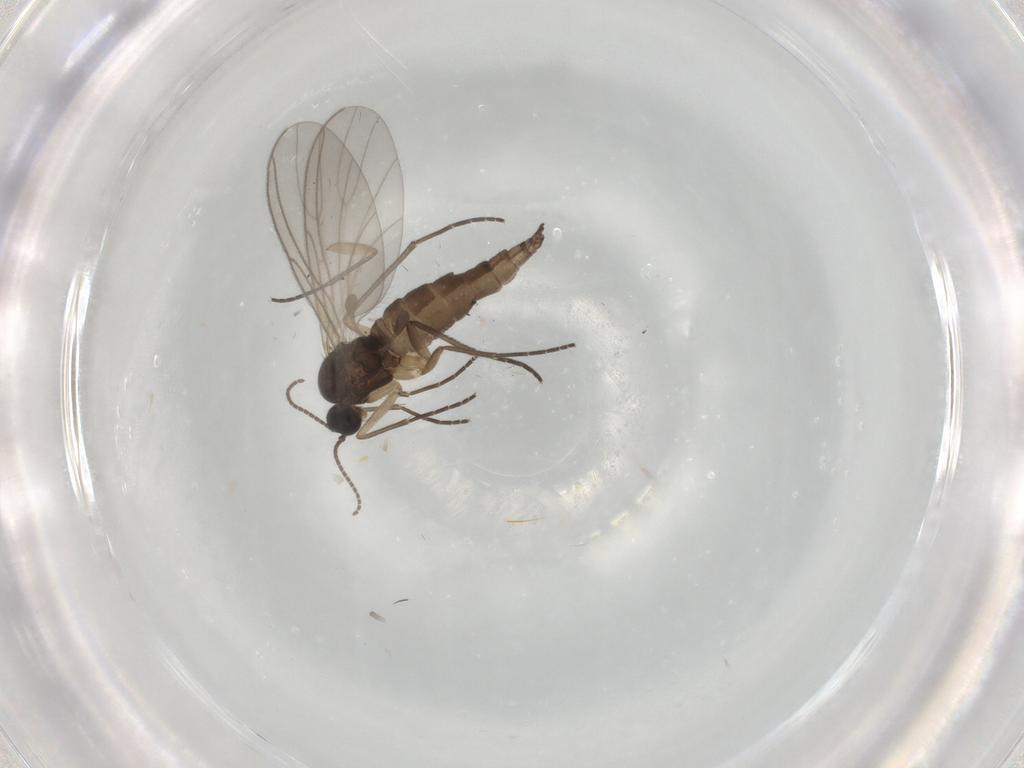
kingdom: Animalia
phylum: Arthropoda
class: Insecta
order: Diptera
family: Sciaridae
